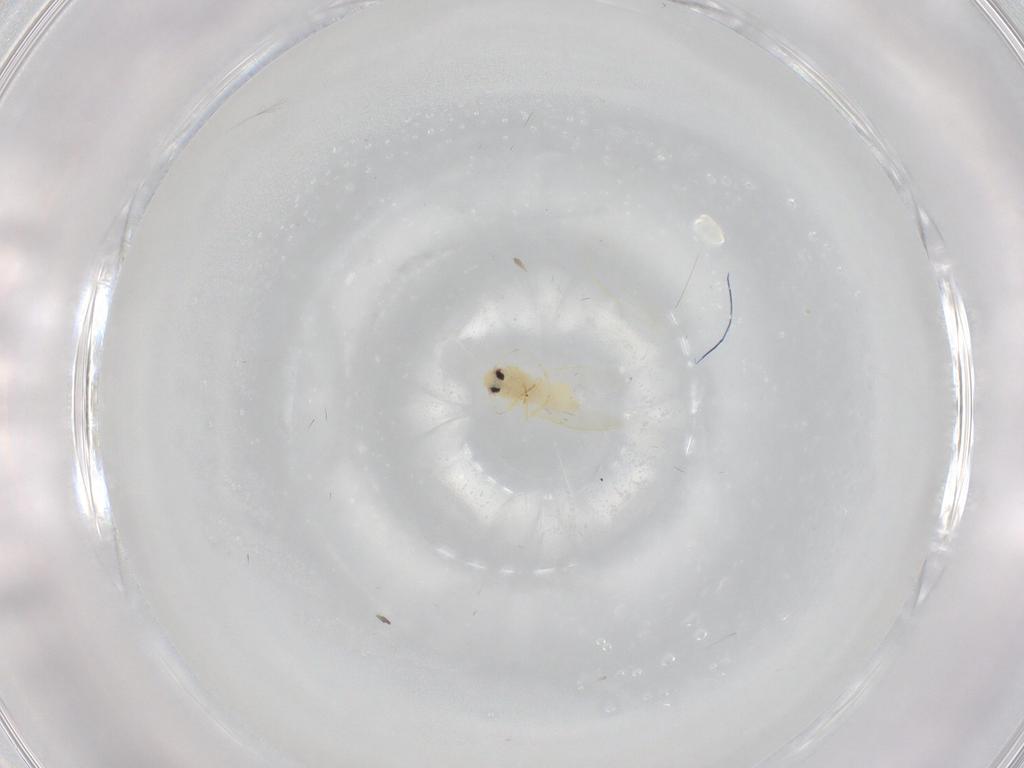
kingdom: Animalia
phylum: Arthropoda
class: Insecta
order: Hemiptera
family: Aleyrodidae
